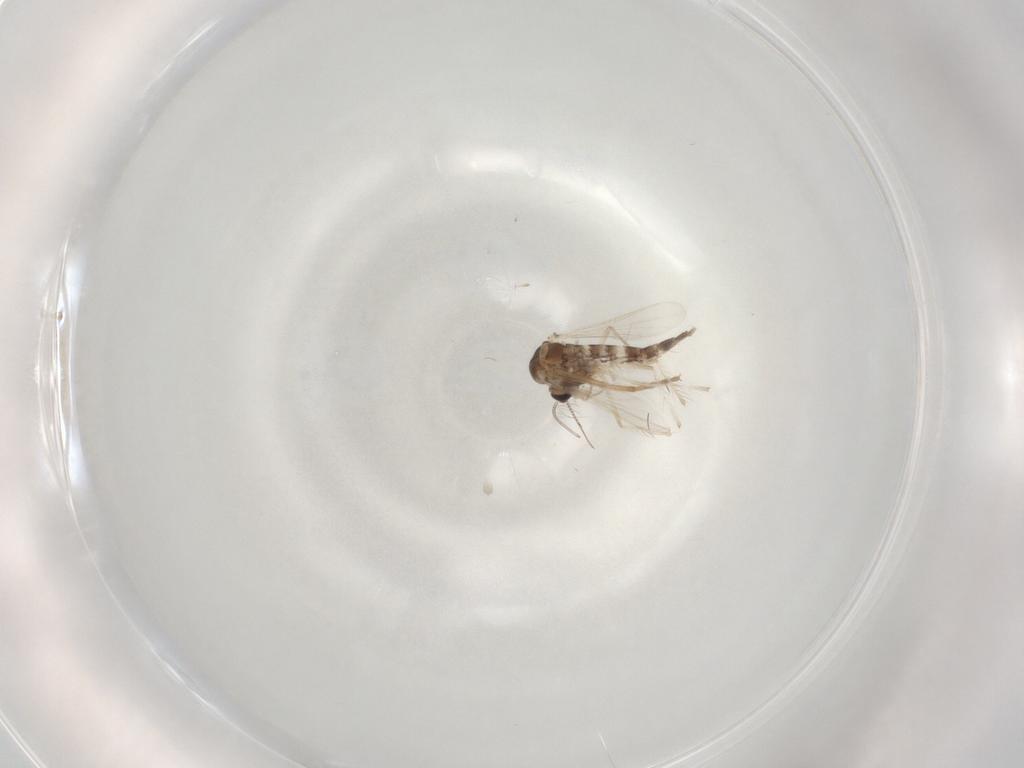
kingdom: Animalia
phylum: Arthropoda
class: Insecta
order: Diptera
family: Chironomidae
